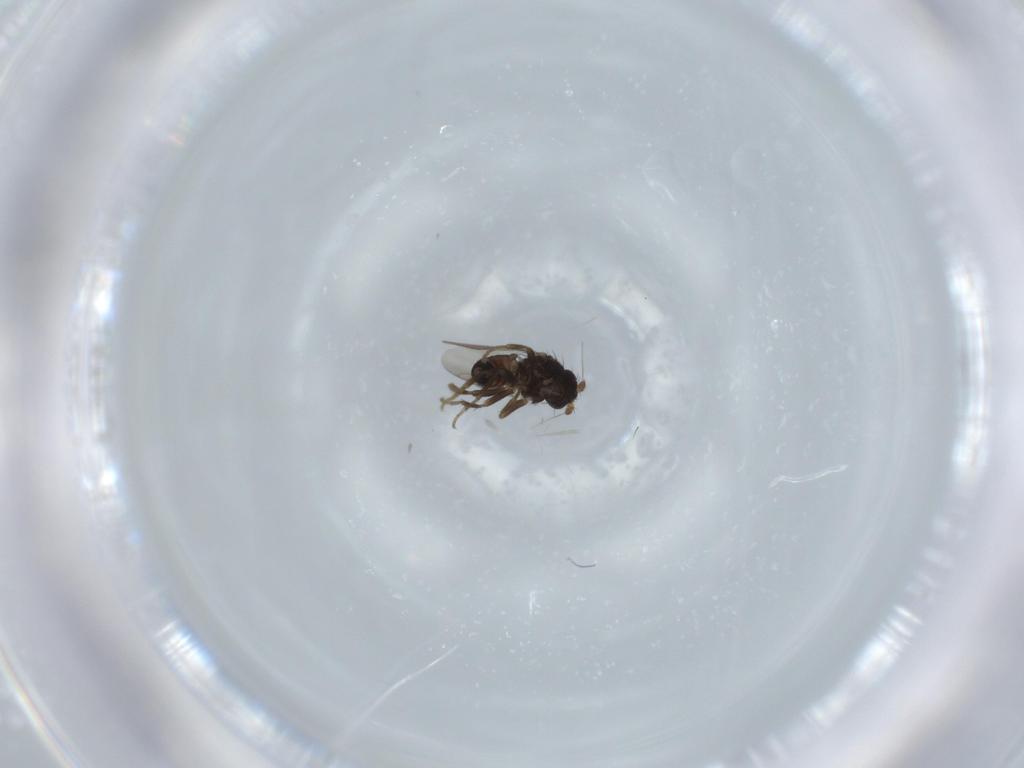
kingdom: Animalia
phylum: Arthropoda
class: Insecta
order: Diptera
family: Sphaeroceridae
